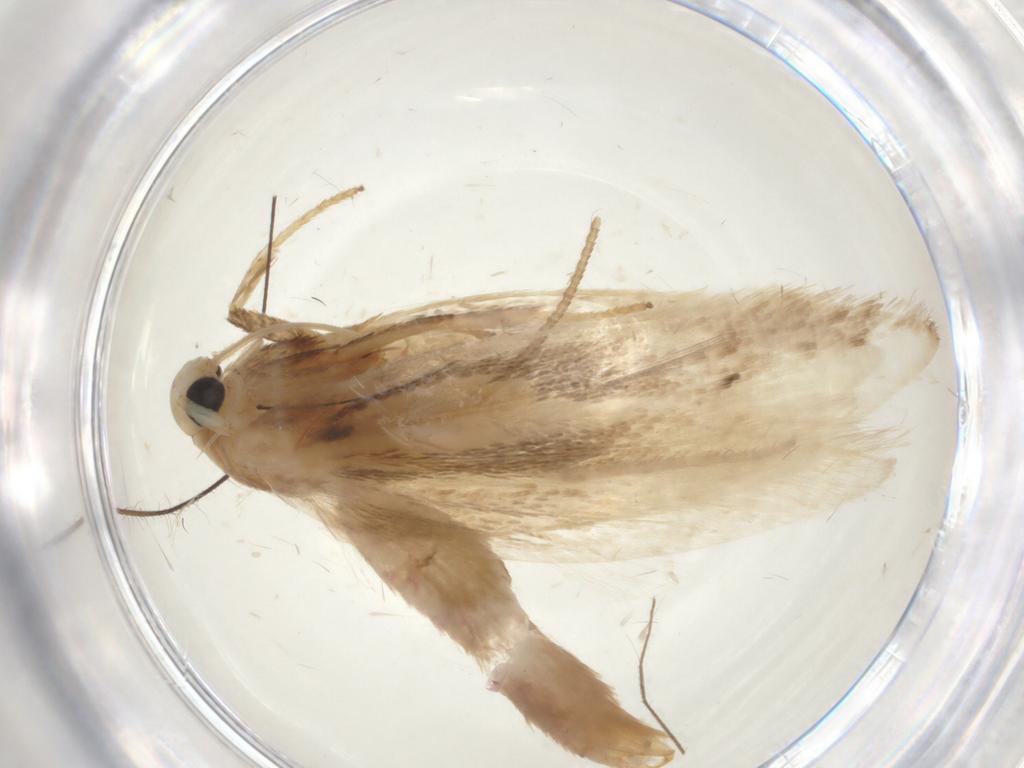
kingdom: Animalia
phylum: Arthropoda
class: Insecta
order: Lepidoptera
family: Geometridae
